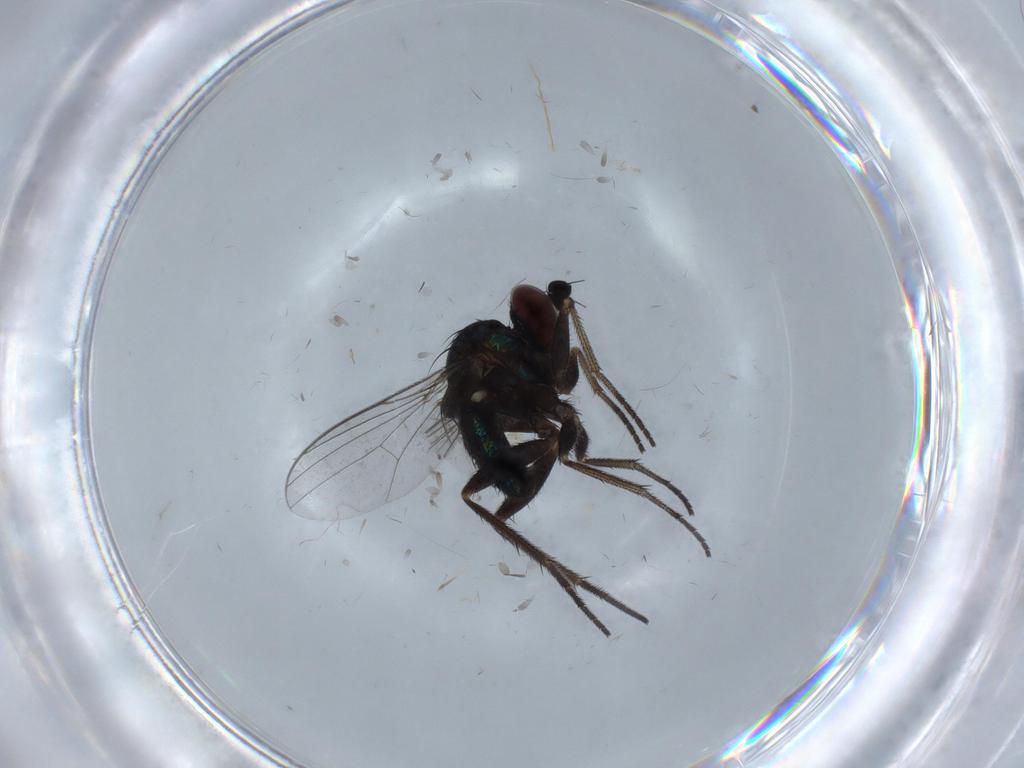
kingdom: Animalia
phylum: Arthropoda
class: Insecta
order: Diptera
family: Dolichopodidae
